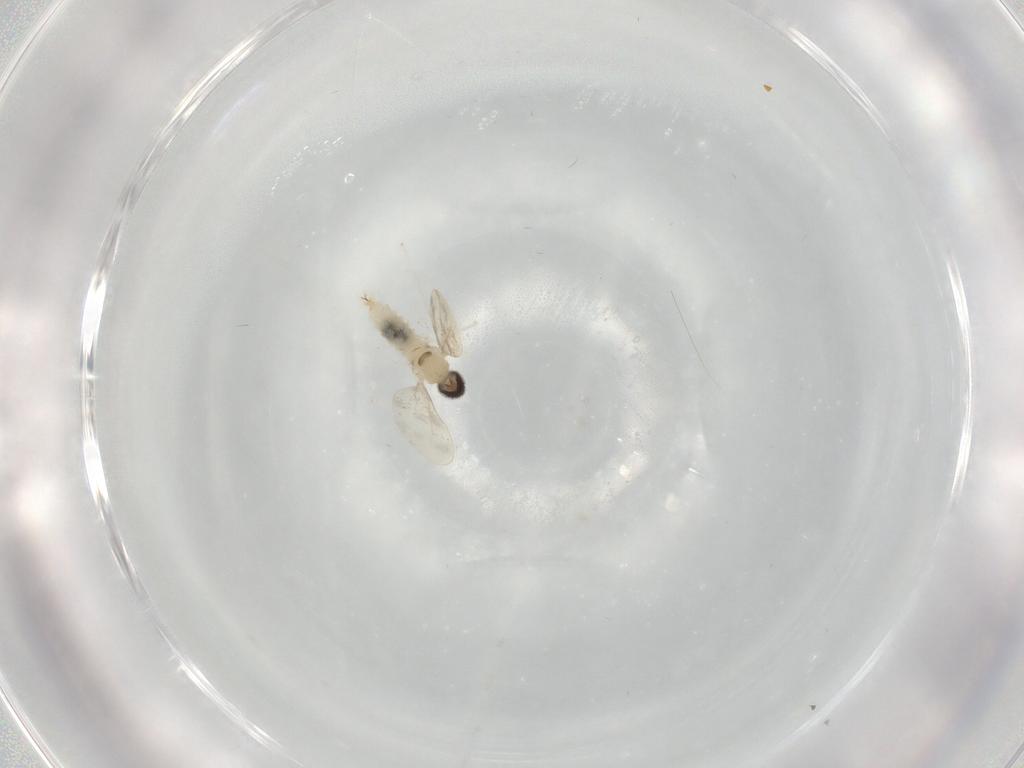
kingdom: Animalia
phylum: Arthropoda
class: Insecta
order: Diptera
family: Cecidomyiidae
